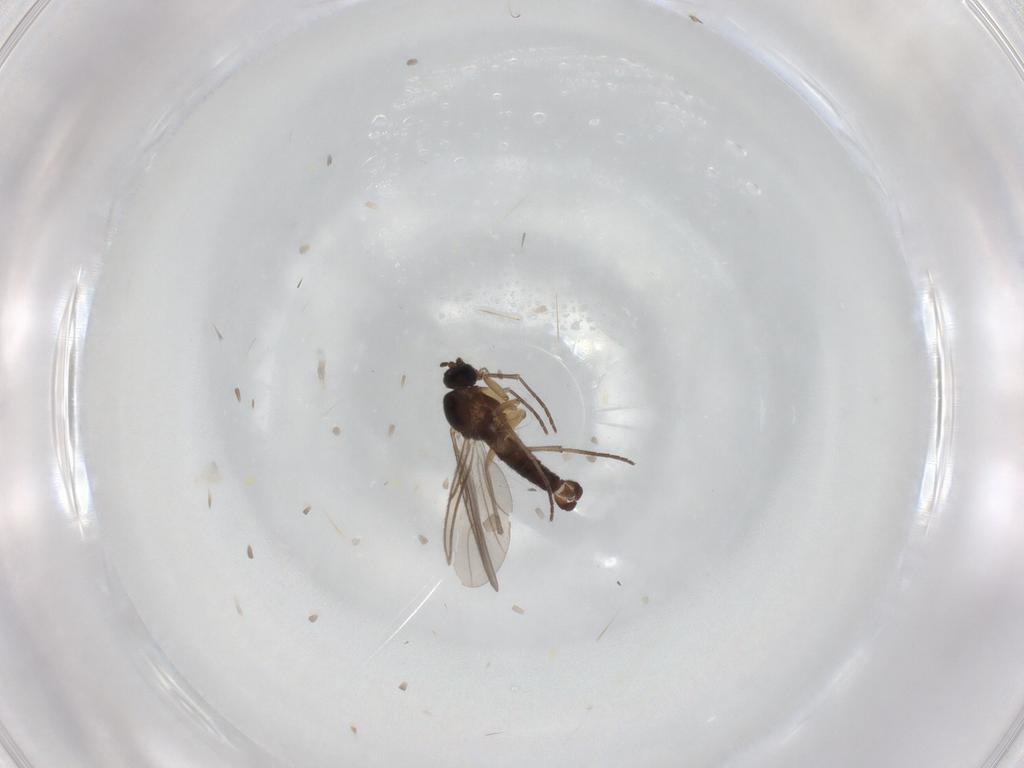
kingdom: Animalia
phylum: Arthropoda
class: Insecta
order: Diptera
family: Sciaridae
